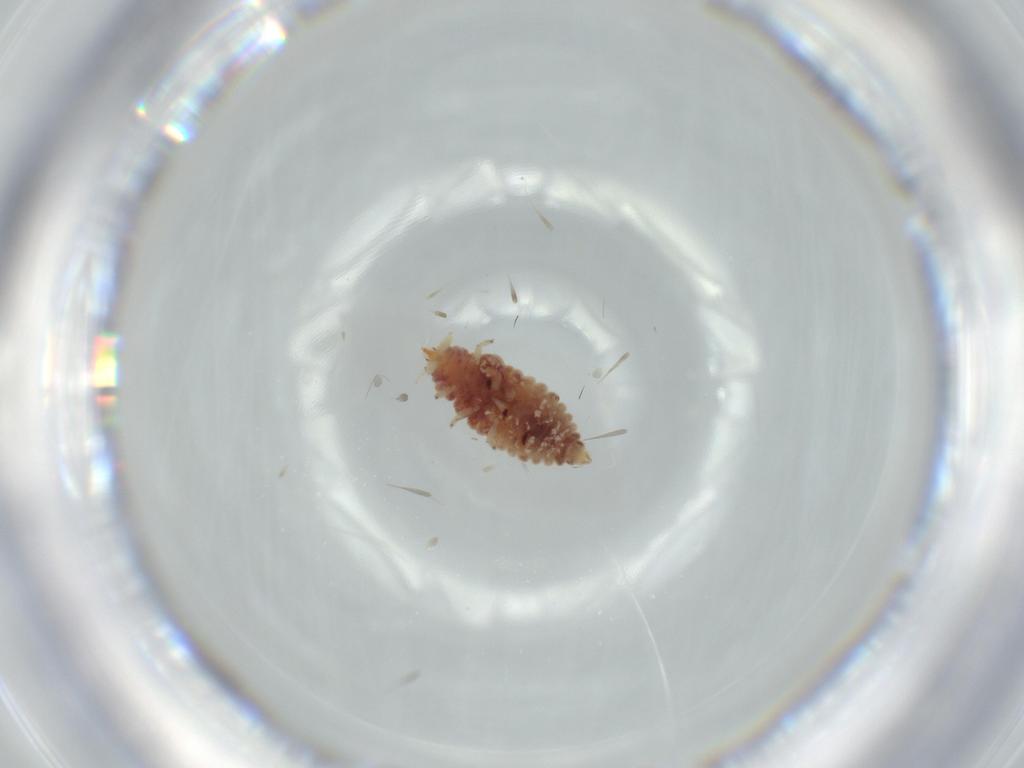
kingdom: Animalia
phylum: Arthropoda
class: Insecta
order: Neuroptera
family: Coniopterygidae
